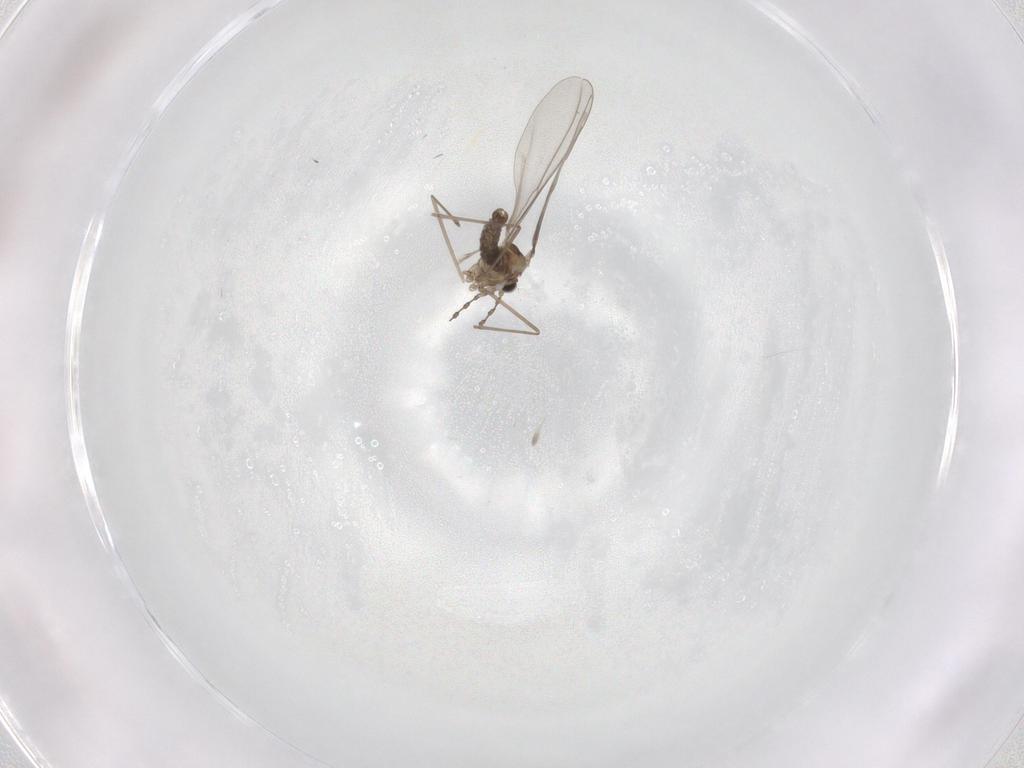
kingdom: Animalia
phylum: Arthropoda
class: Insecta
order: Diptera
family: Cecidomyiidae
